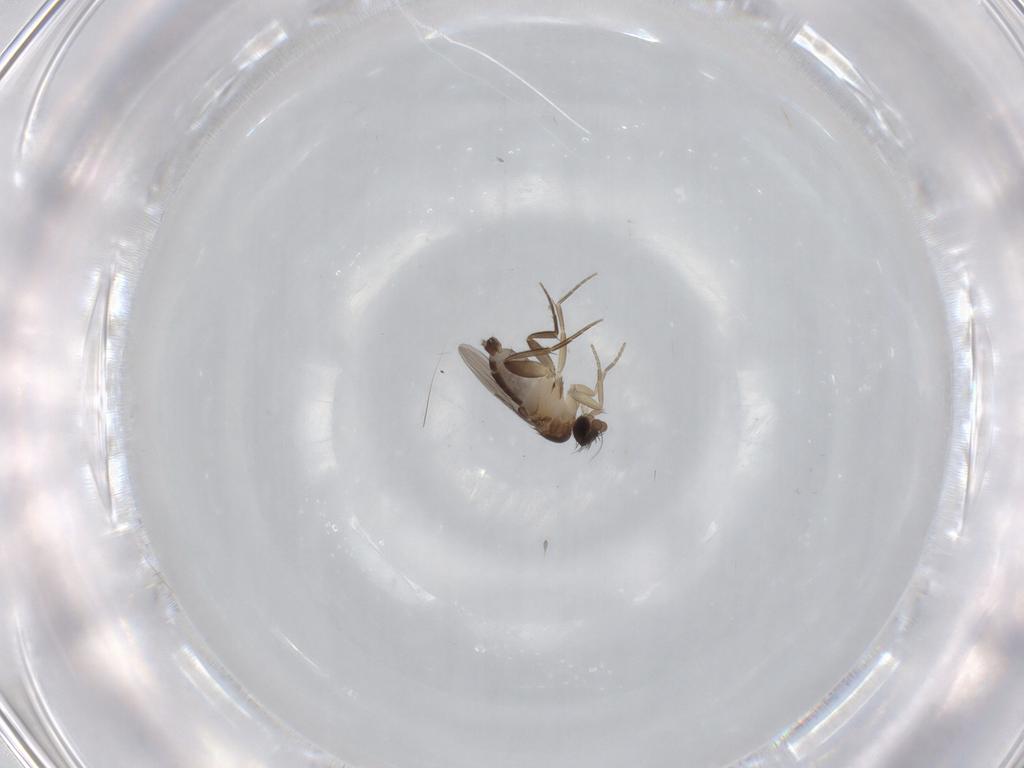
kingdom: Animalia
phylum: Arthropoda
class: Insecta
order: Diptera
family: Phoridae
